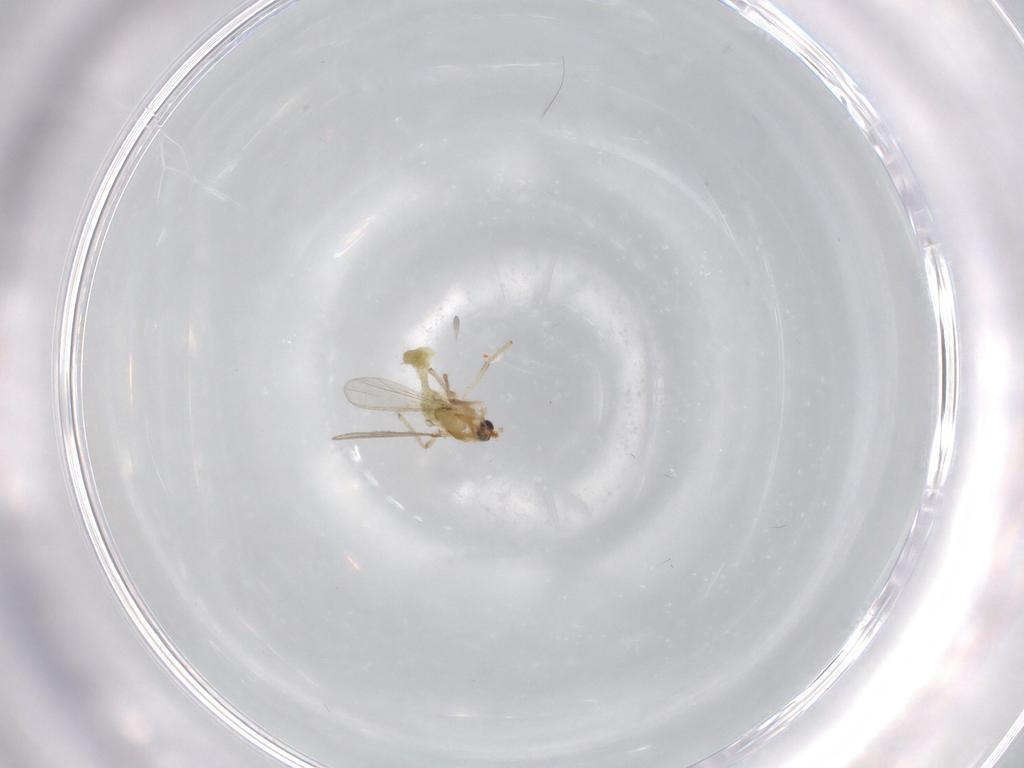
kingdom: Animalia
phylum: Arthropoda
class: Insecta
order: Diptera
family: Chironomidae
